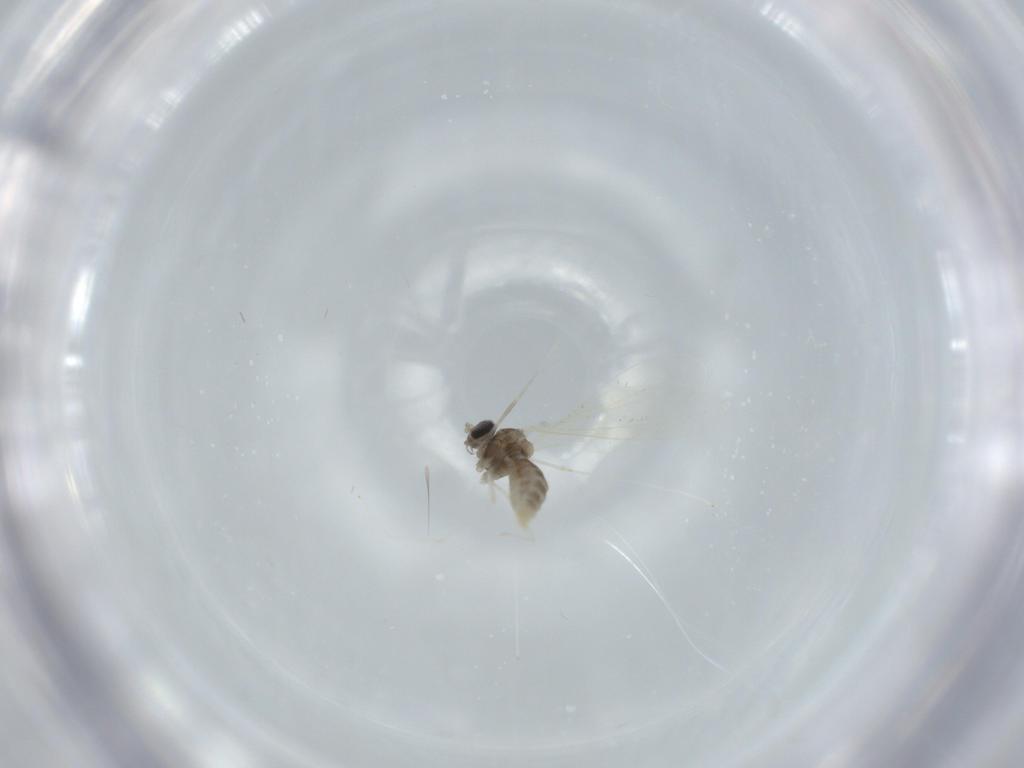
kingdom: Animalia
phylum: Arthropoda
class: Insecta
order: Diptera
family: Cecidomyiidae
